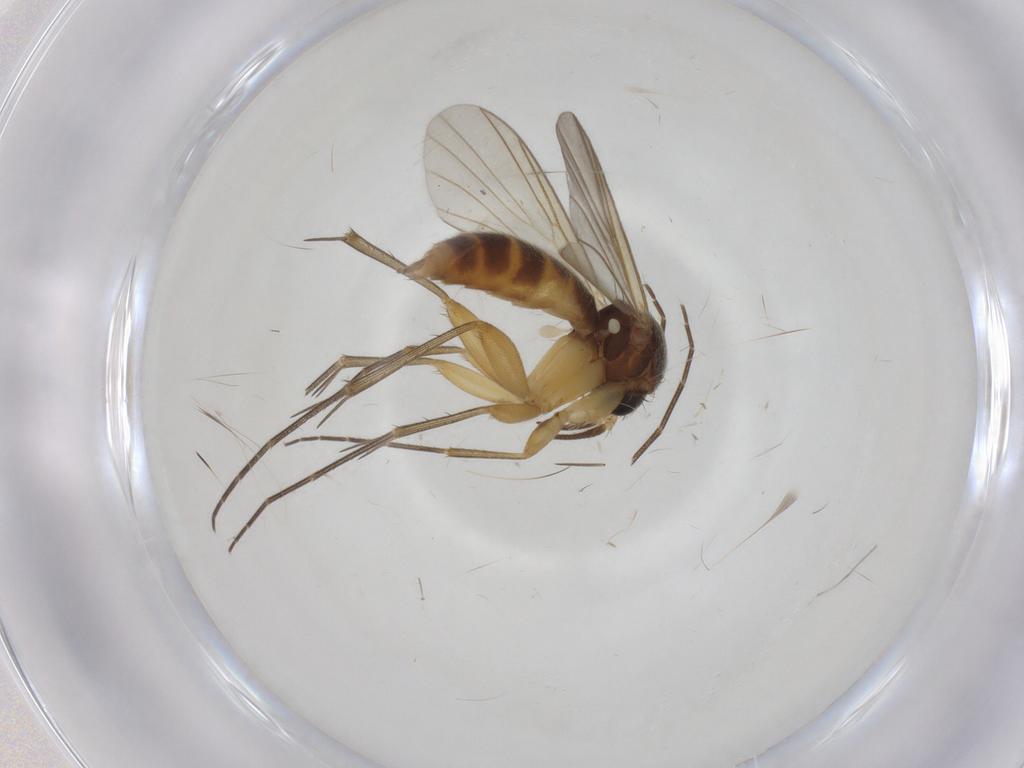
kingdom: Animalia
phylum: Arthropoda
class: Insecta
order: Diptera
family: Chironomidae
